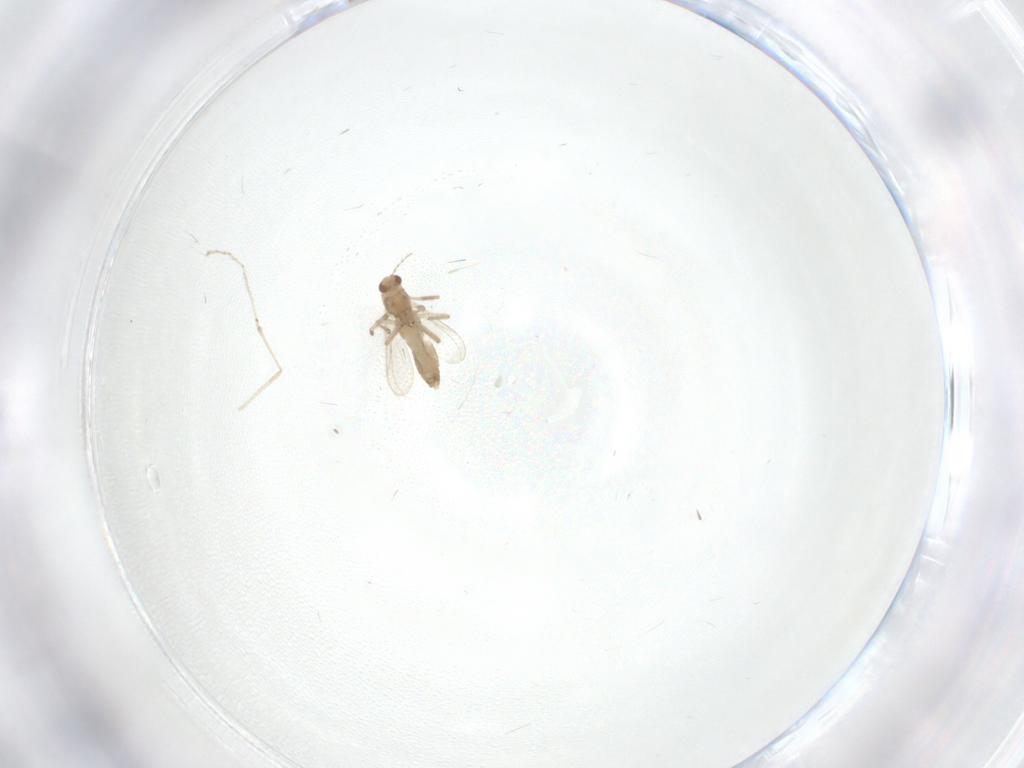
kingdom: Animalia
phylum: Arthropoda
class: Insecta
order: Diptera
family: Chironomidae
